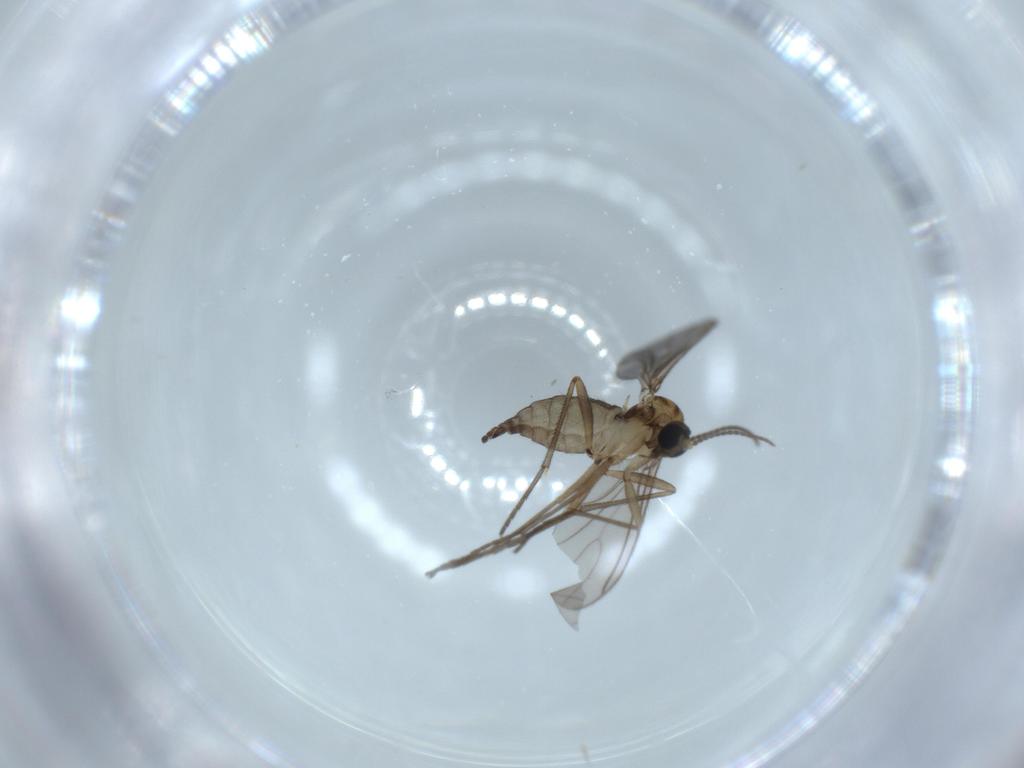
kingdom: Animalia
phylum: Arthropoda
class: Insecta
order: Diptera
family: Sciaridae
